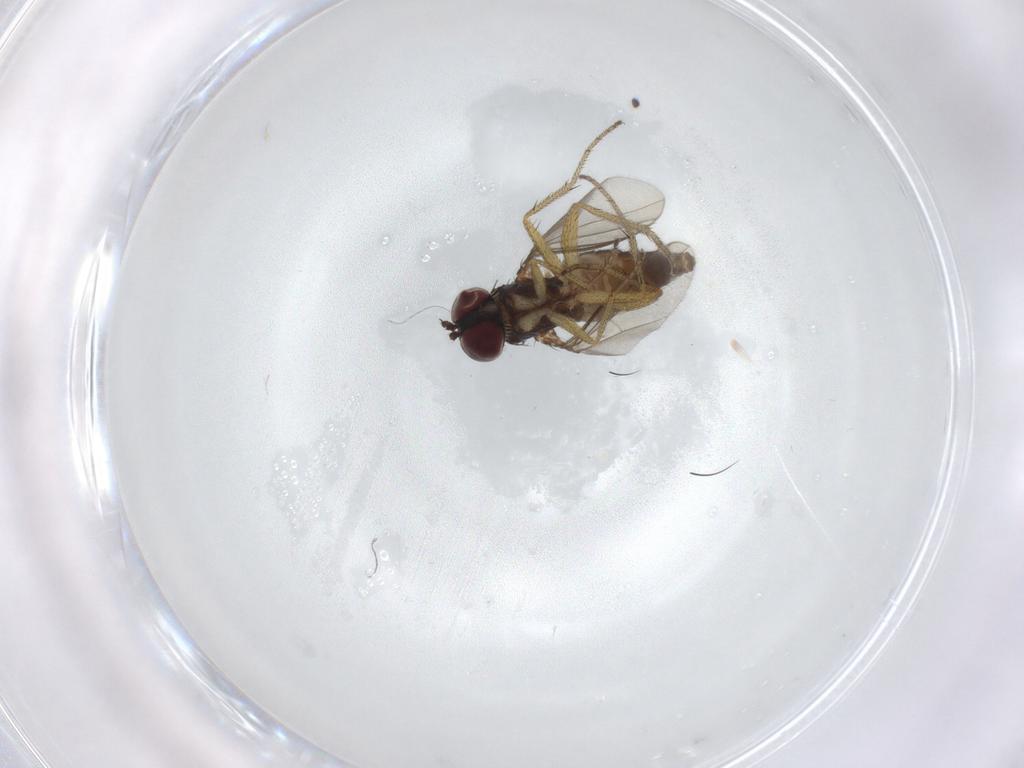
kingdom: Animalia
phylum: Arthropoda
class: Insecta
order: Diptera
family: Dolichopodidae
